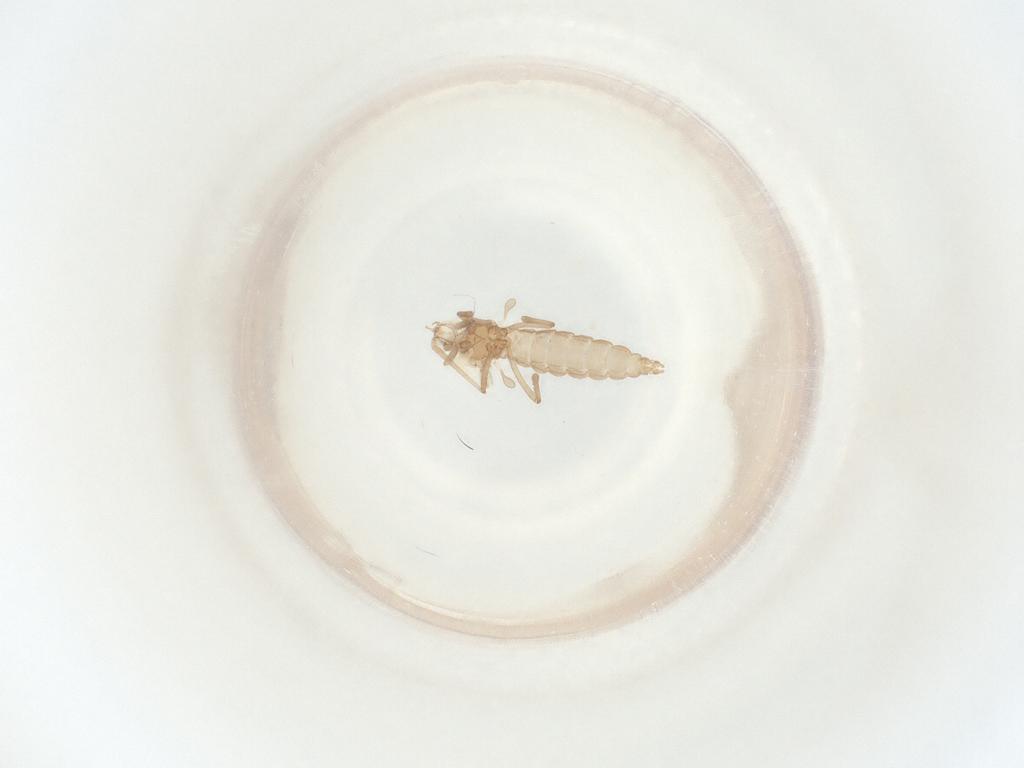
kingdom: Animalia
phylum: Arthropoda
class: Insecta
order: Diptera
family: Cecidomyiidae
